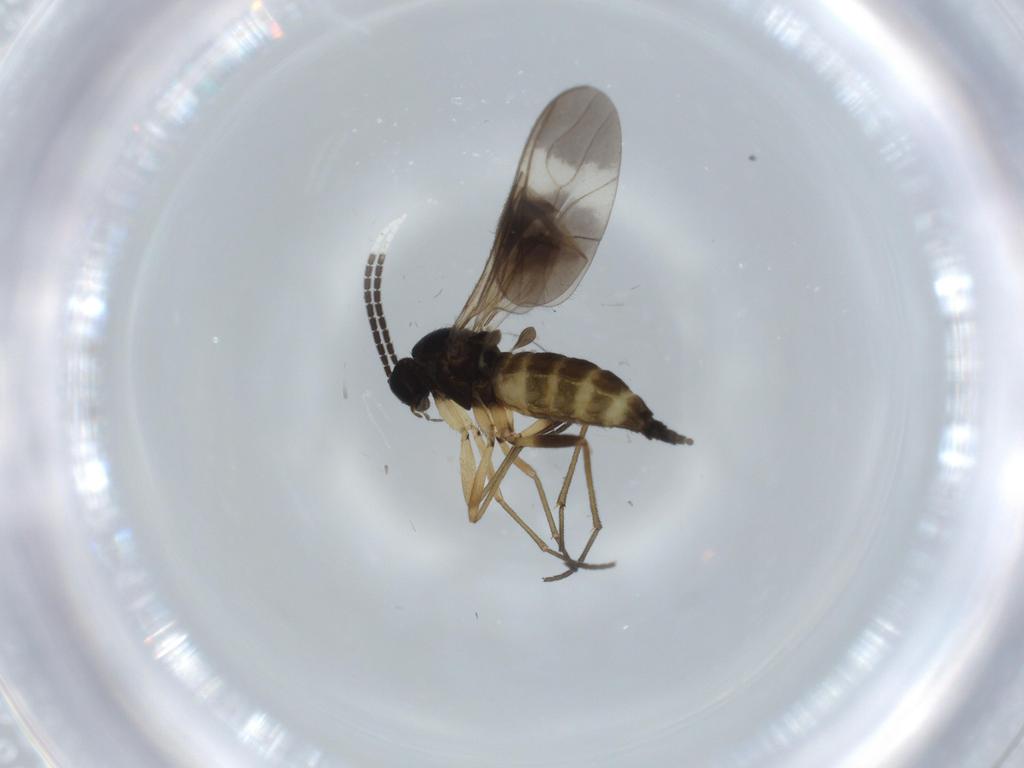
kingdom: Animalia
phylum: Arthropoda
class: Insecta
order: Diptera
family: Sciaridae
